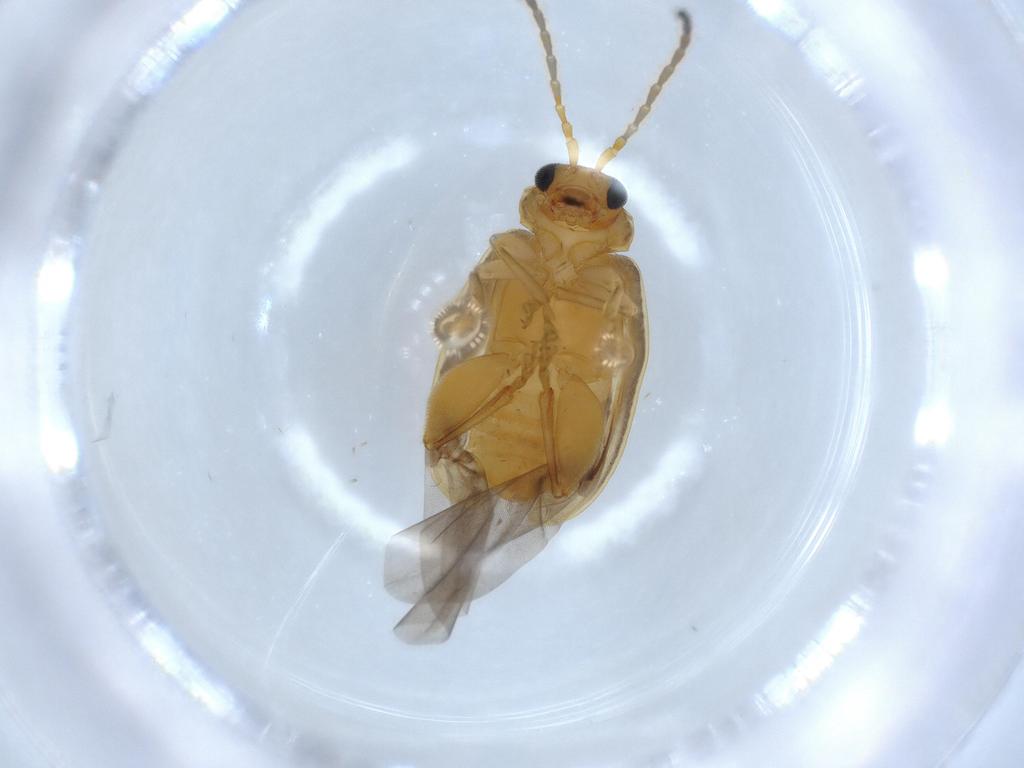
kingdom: Animalia
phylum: Arthropoda
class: Insecta
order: Coleoptera
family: Chrysomelidae
